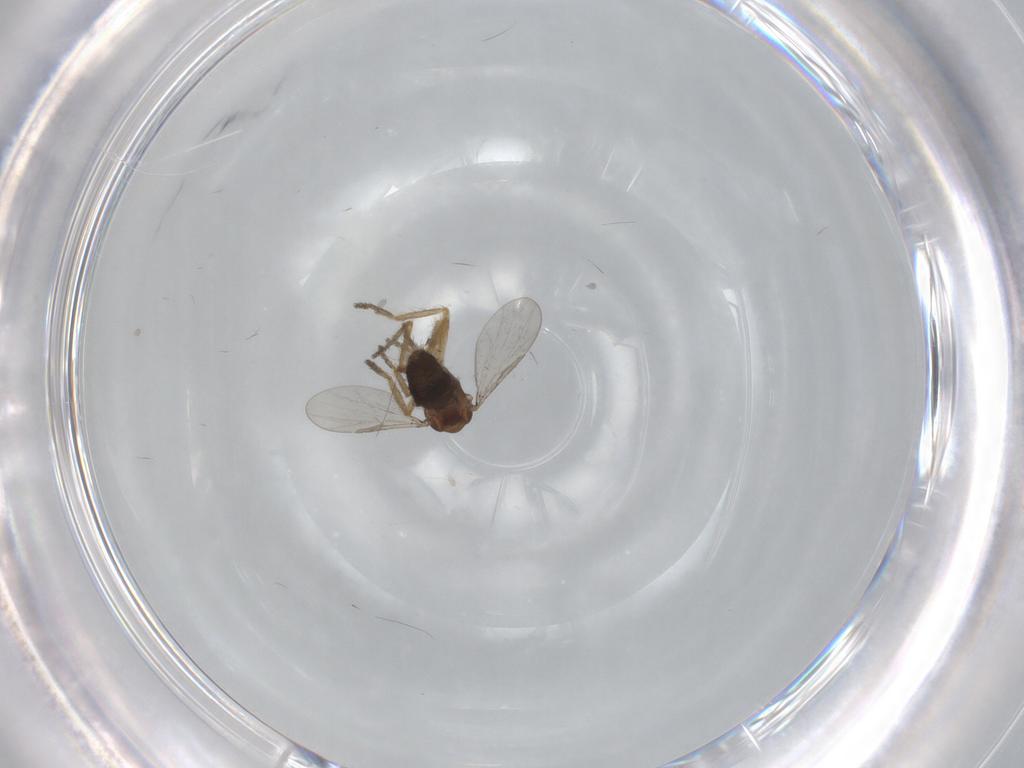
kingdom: Animalia
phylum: Arthropoda
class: Insecta
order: Diptera
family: Ceratopogonidae
